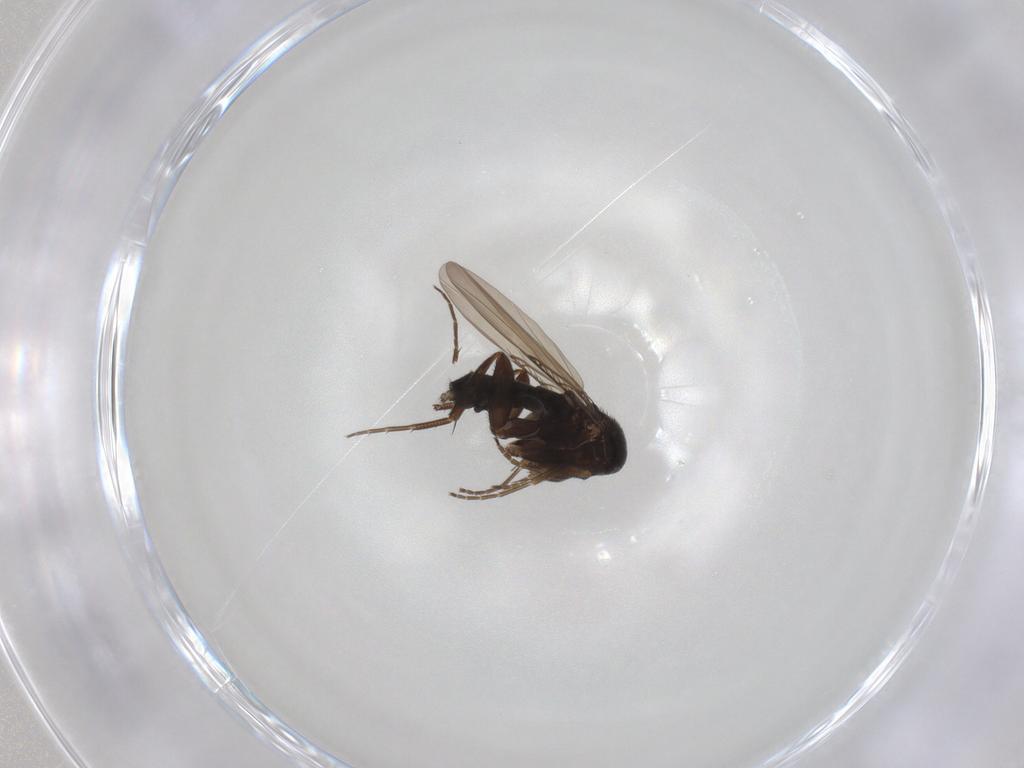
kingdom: Animalia
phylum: Arthropoda
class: Insecta
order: Diptera
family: Phoridae
